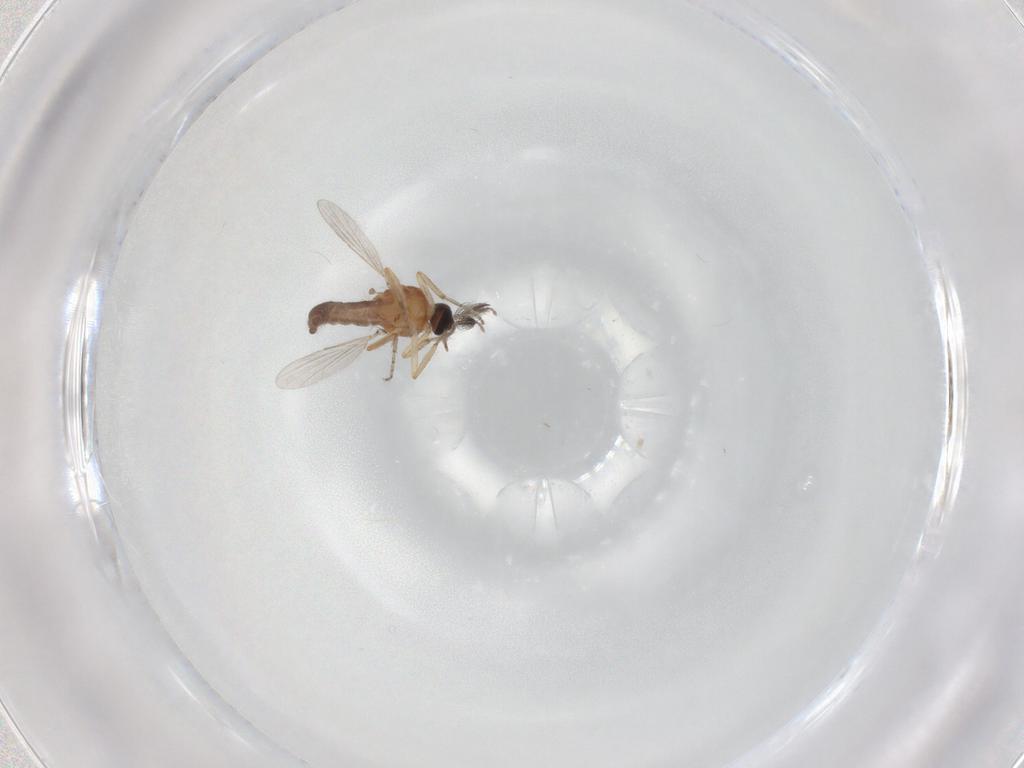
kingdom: Animalia
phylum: Arthropoda
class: Insecta
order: Diptera
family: Ceratopogonidae
